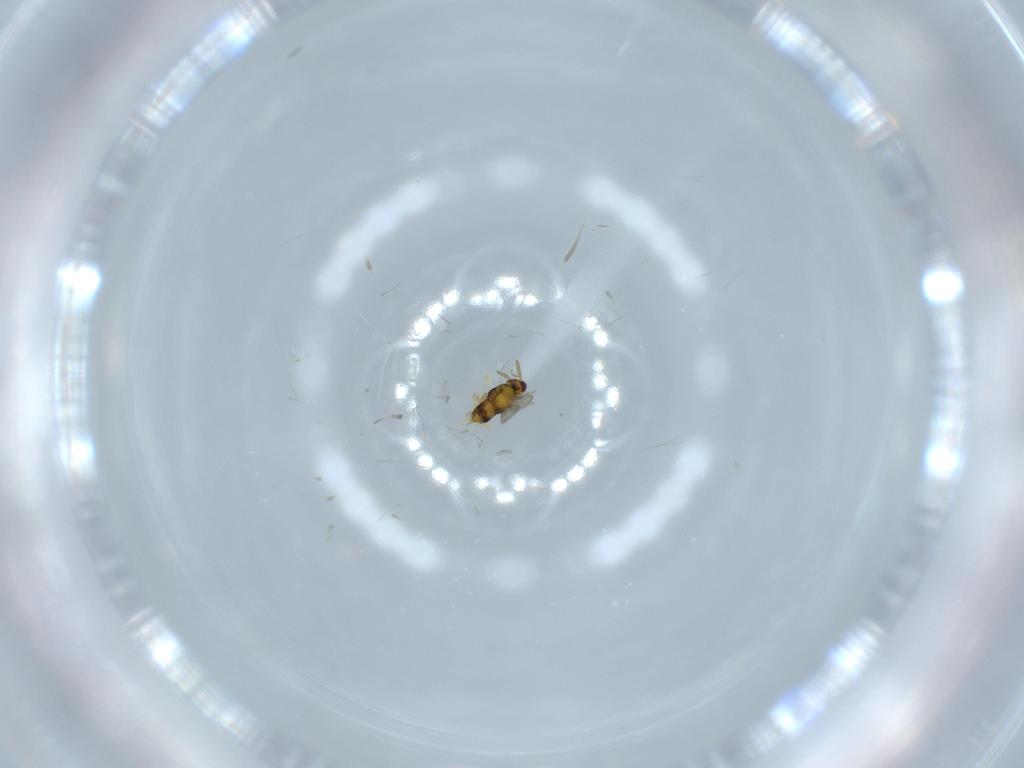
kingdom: Animalia
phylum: Arthropoda
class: Insecta
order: Hymenoptera
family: Aphelinidae
